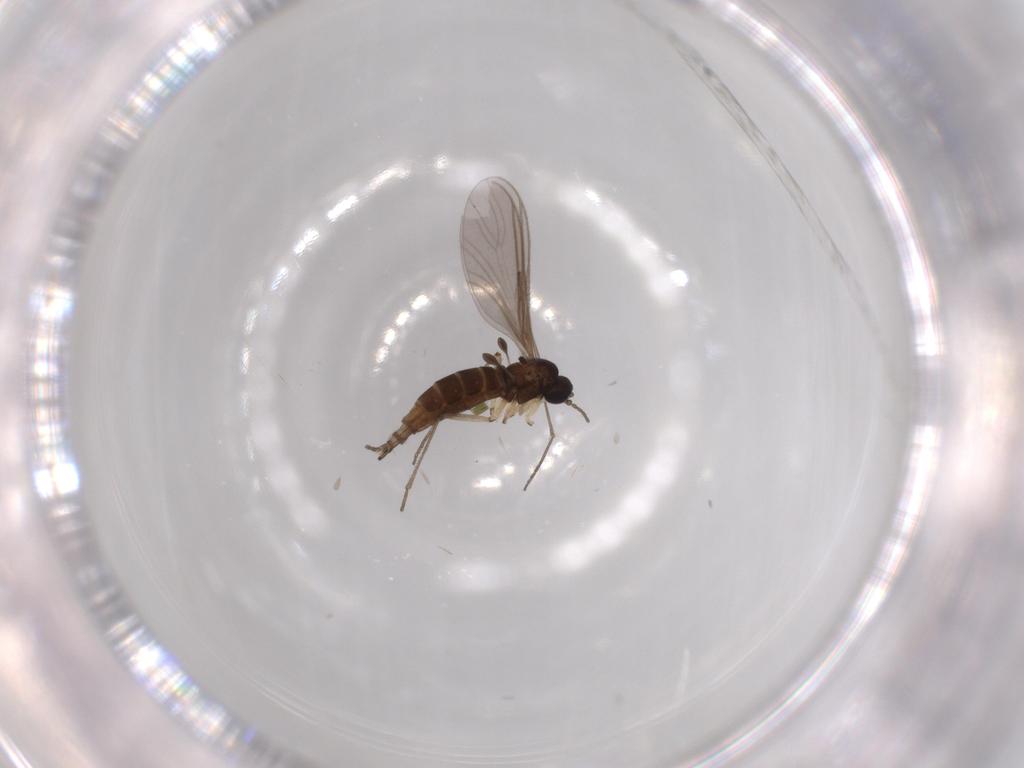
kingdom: Animalia
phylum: Arthropoda
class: Insecta
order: Diptera
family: Ceratopogonidae
